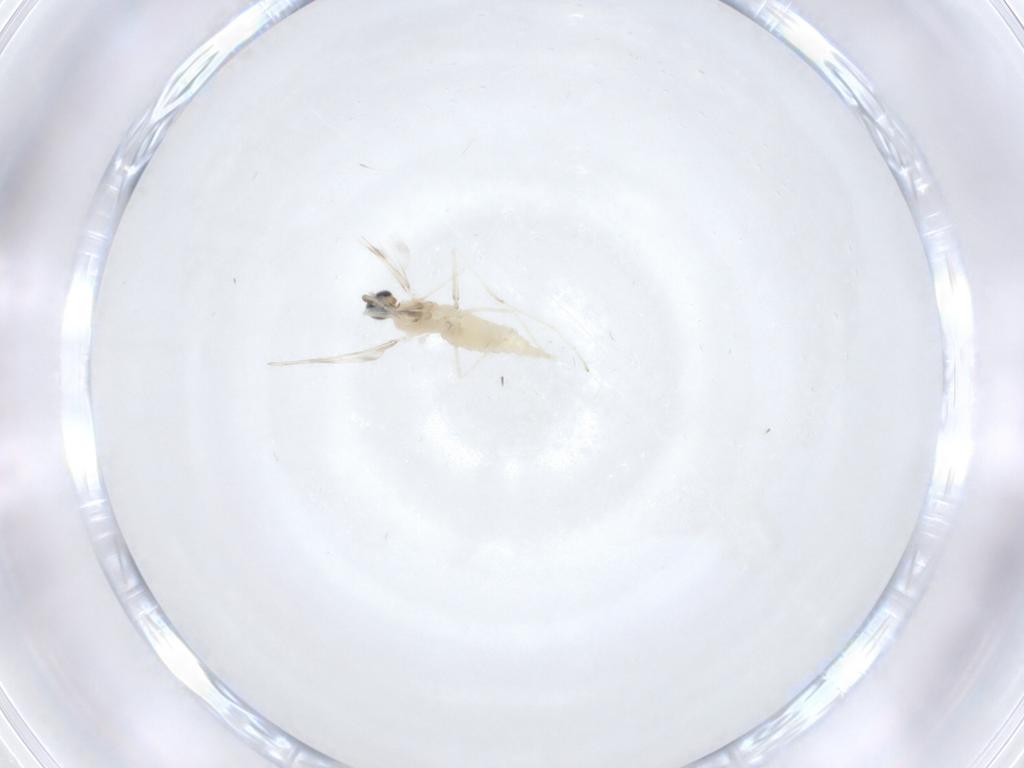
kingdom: Animalia
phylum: Arthropoda
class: Insecta
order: Diptera
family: Cecidomyiidae
